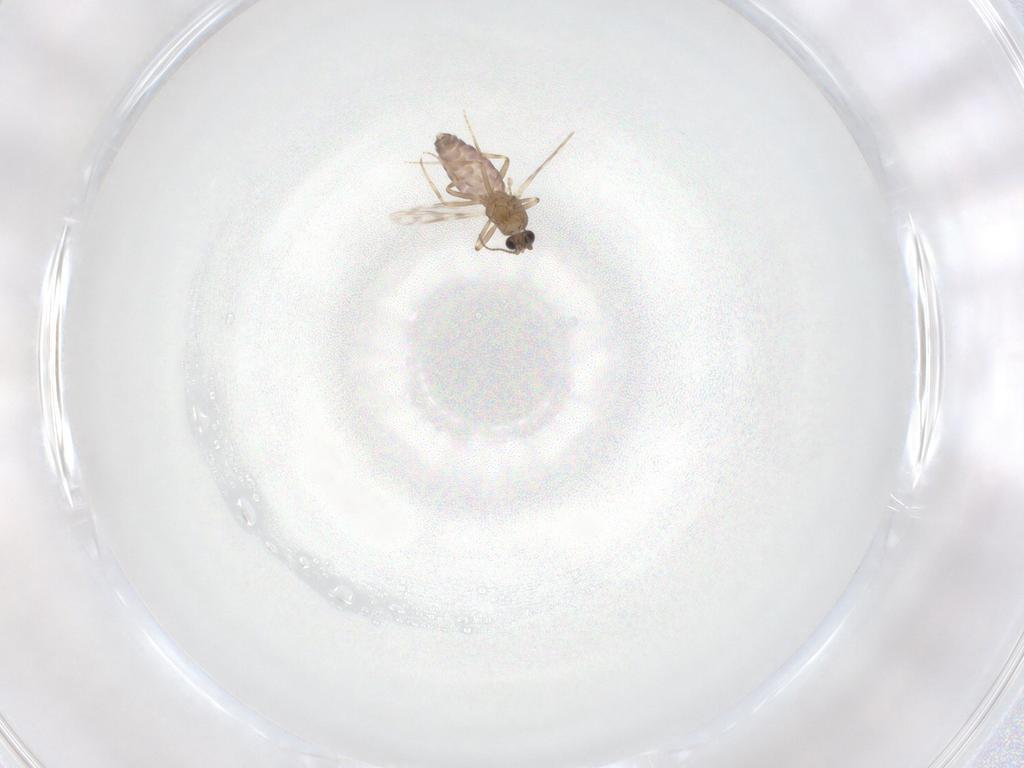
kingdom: Animalia
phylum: Arthropoda
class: Insecta
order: Diptera
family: Ceratopogonidae
